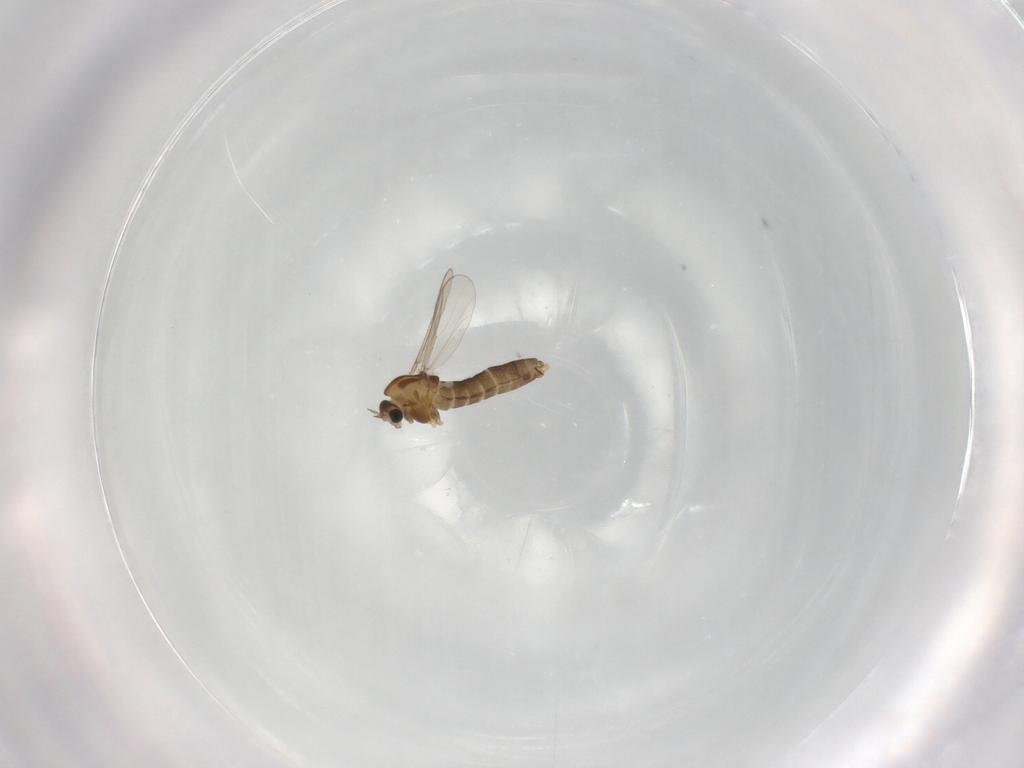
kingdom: Animalia
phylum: Arthropoda
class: Insecta
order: Diptera
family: Chironomidae
